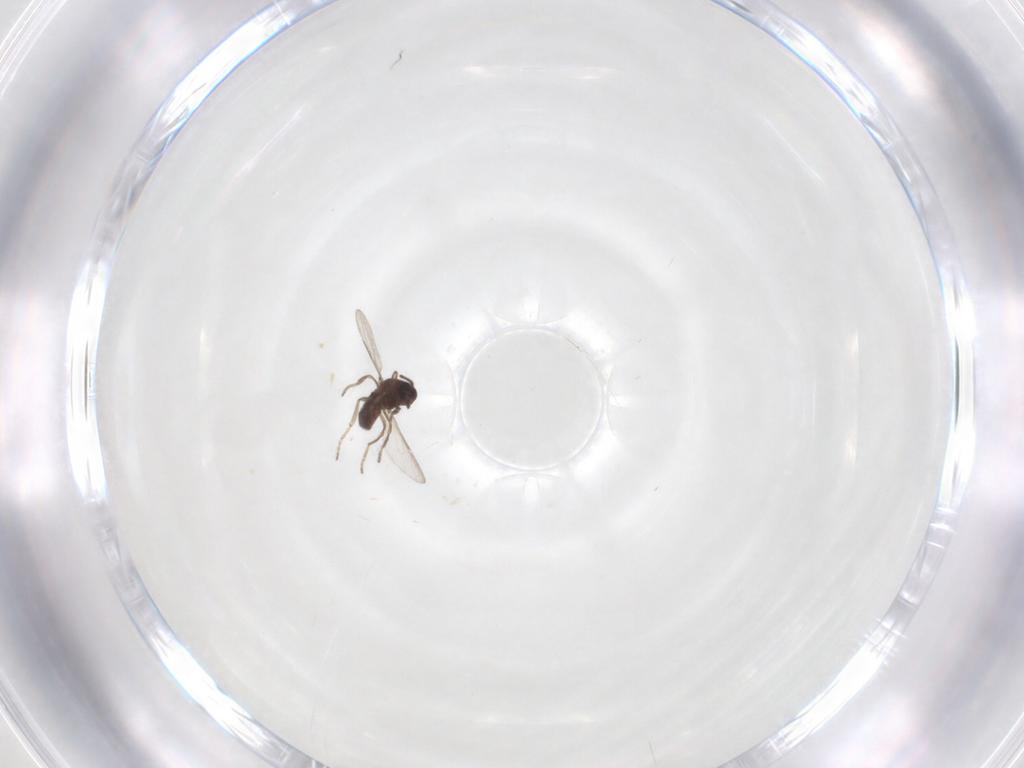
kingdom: Animalia
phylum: Arthropoda
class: Insecta
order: Diptera
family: Ceratopogonidae
